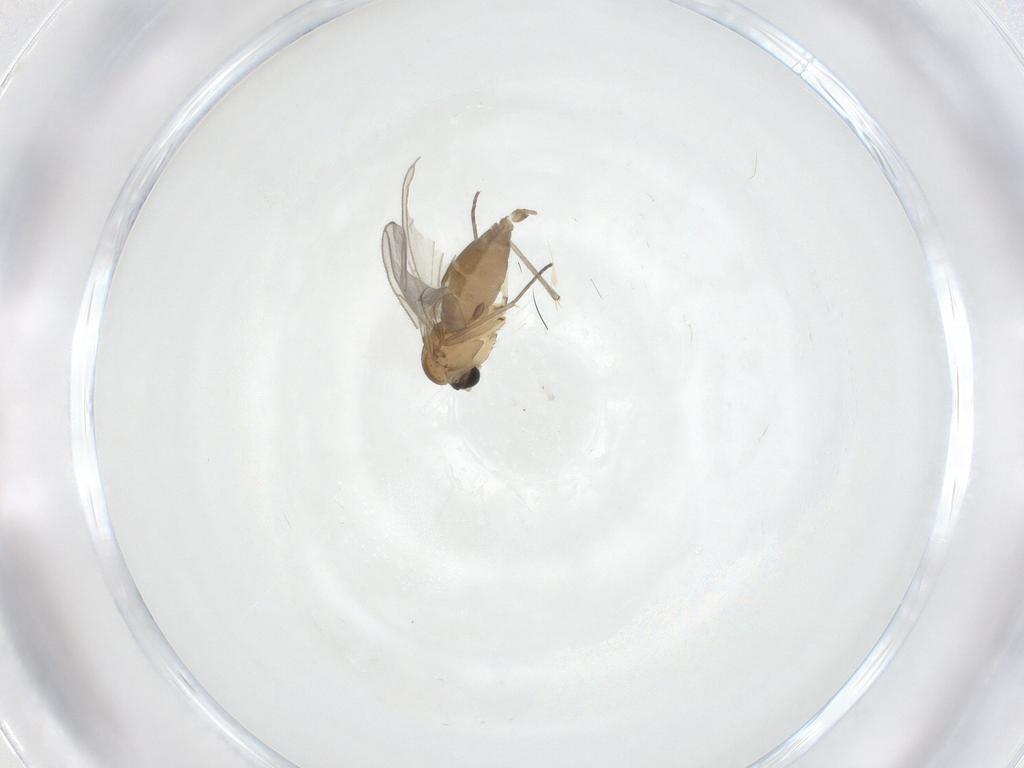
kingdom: Animalia
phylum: Arthropoda
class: Insecta
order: Diptera
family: Sciaridae
